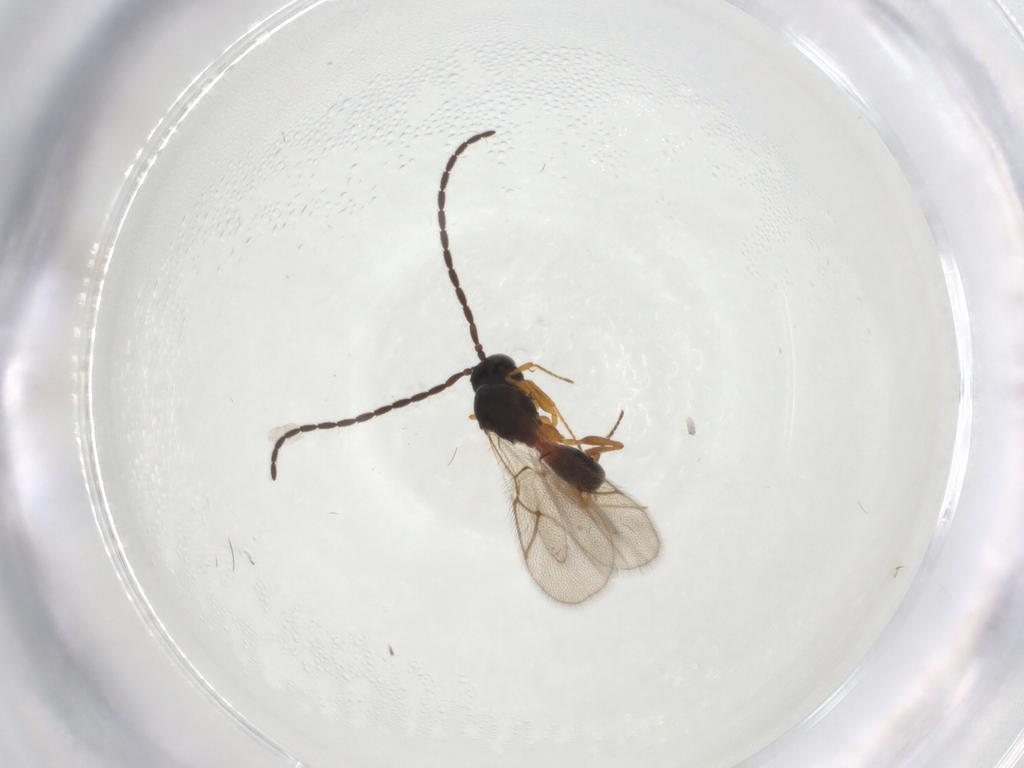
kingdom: Animalia
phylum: Arthropoda
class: Insecta
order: Hymenoptera
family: Figitidae
